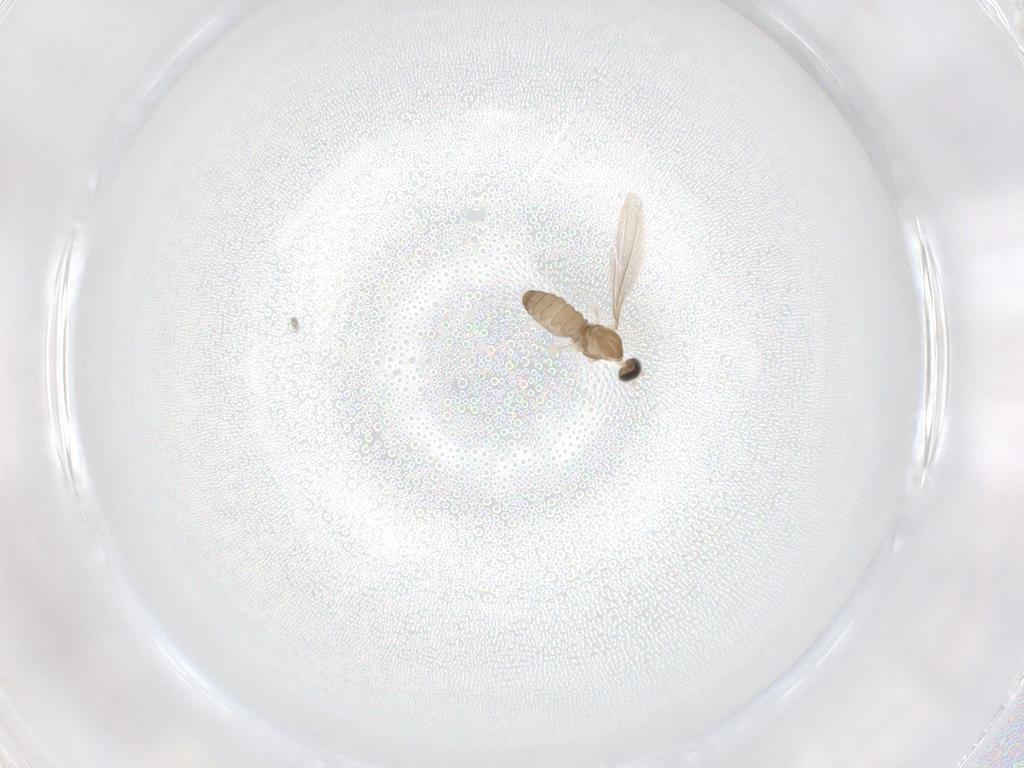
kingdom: Animalia
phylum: Arthropoda
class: Insecta
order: Diptera
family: Cecidomyiidae
